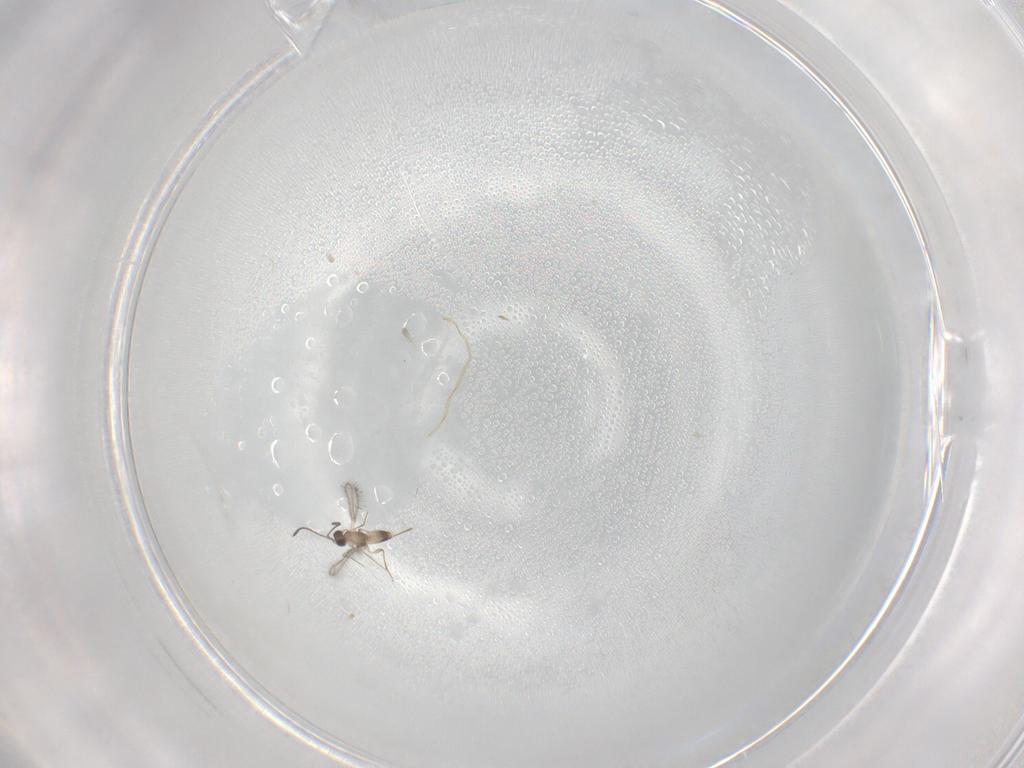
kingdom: Animalia
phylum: Arthropoda
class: Insecta
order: Hymenoptera
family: Mymaridae
